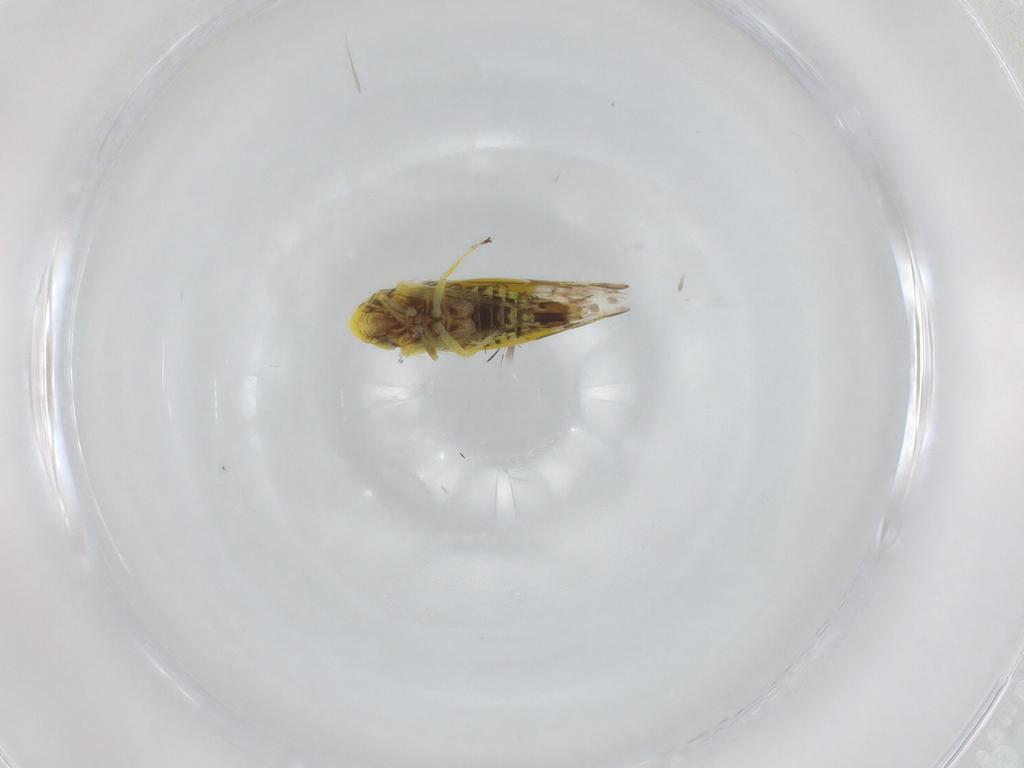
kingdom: Animalia
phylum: Arthropoda
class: Insecta
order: Hemiptera
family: Cicadellidae
